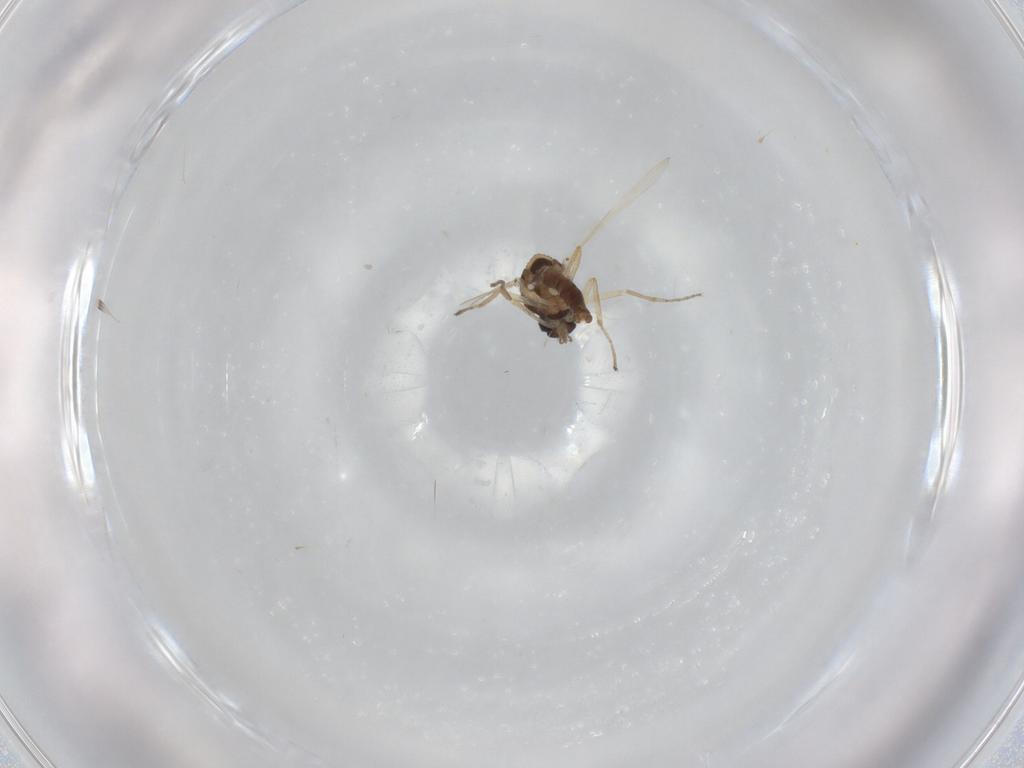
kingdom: Animalia
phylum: Arthropoda
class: Insecta
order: Diptera
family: Ceratopogonidae
